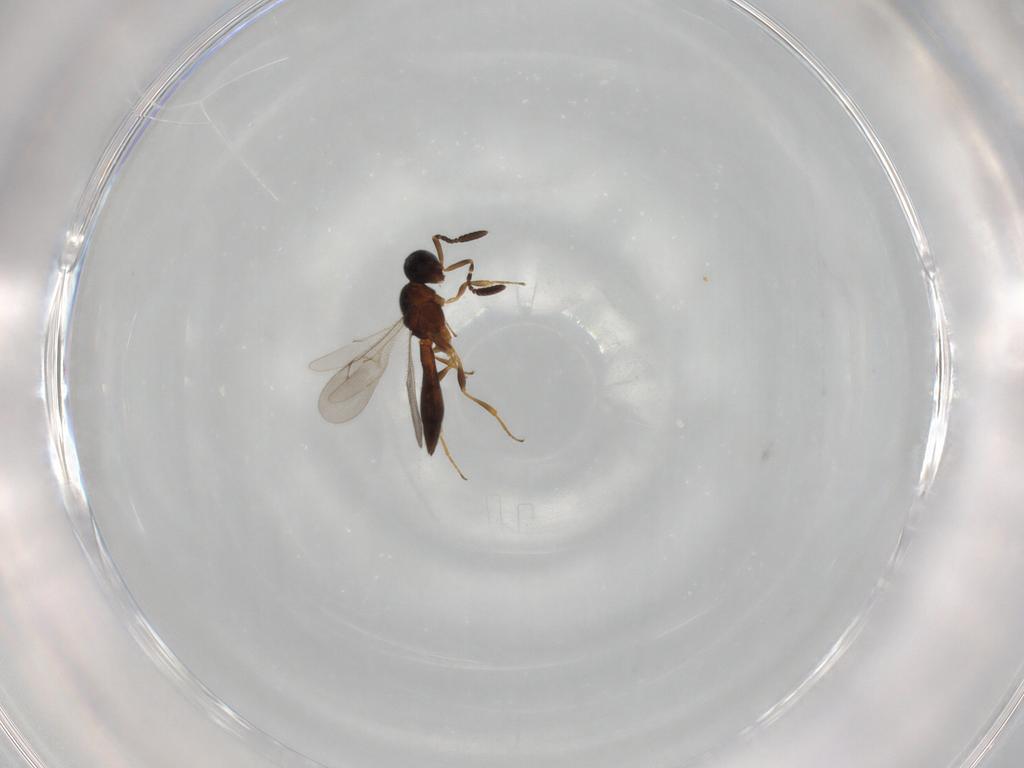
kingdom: Animalia
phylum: Arthropoda
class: Insecta
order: Hymenoptera
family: Scelionidae
